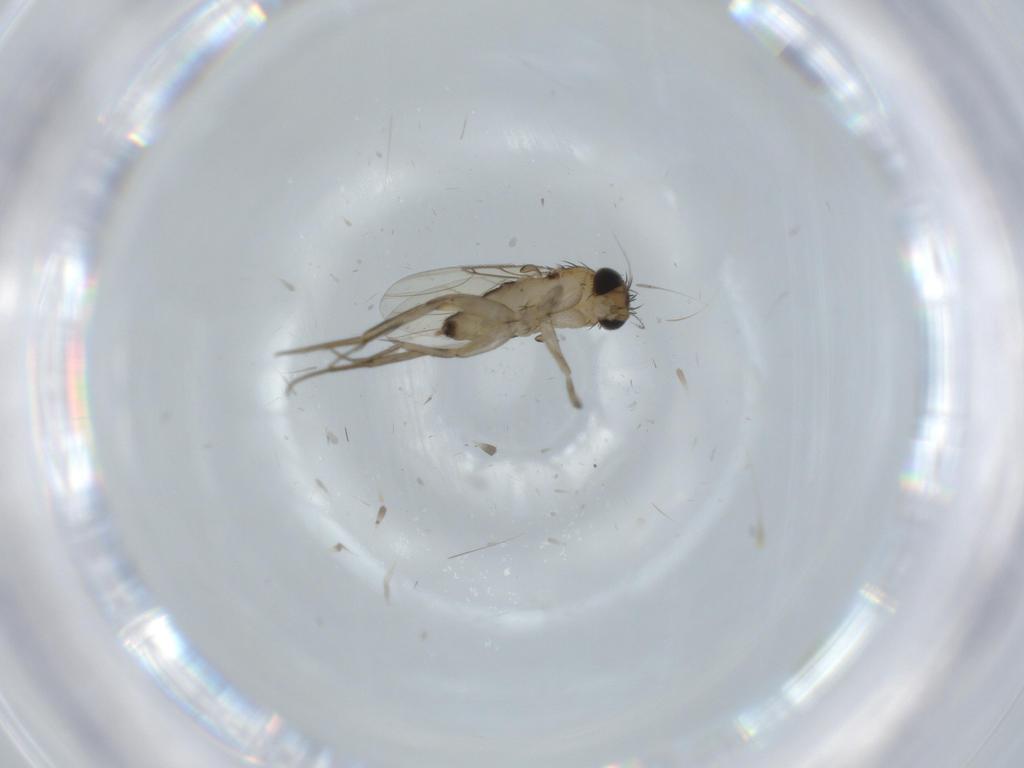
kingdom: Animalia
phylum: Arthropoda
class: Insecta
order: Diptera
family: Phoridae
